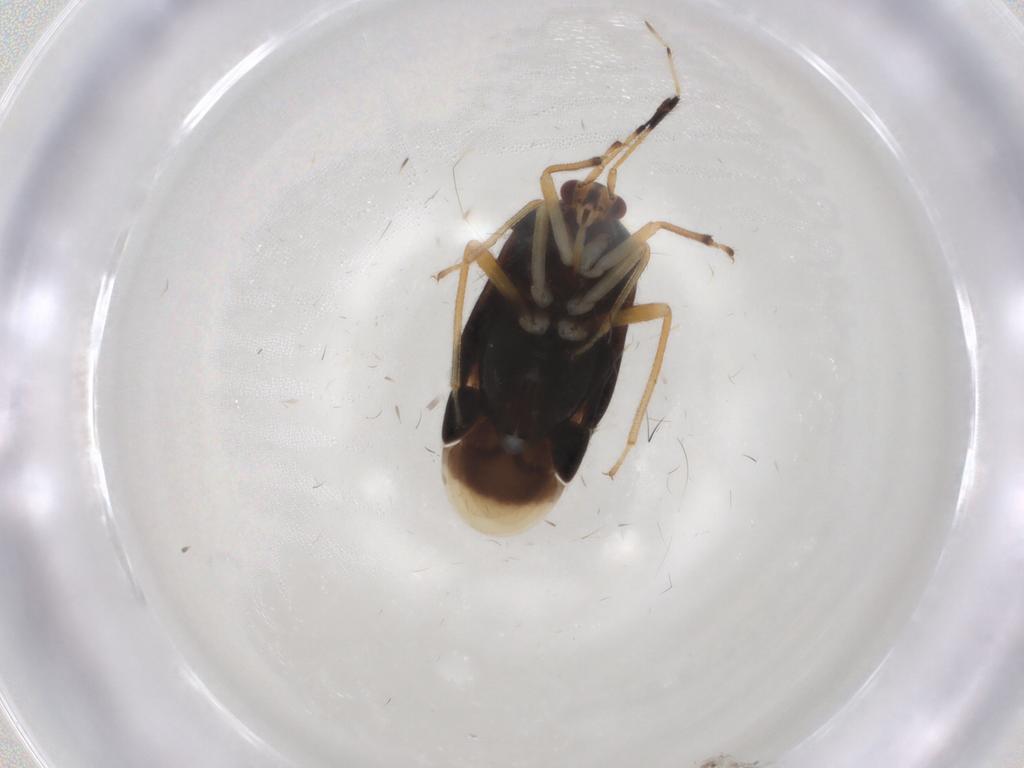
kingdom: Animalia
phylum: Arthropoda
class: Insecta
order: Hemiptera
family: Miridae
